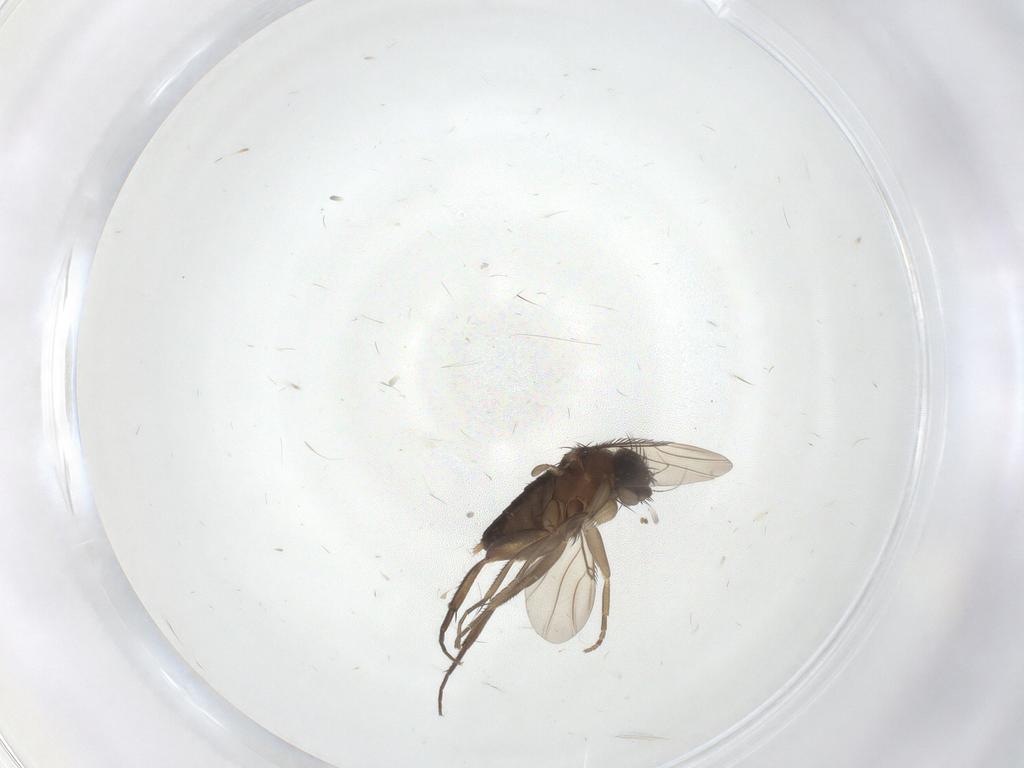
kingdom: Animalia
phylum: Arthropoda
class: Insecta
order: Diptera
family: Phoridae
